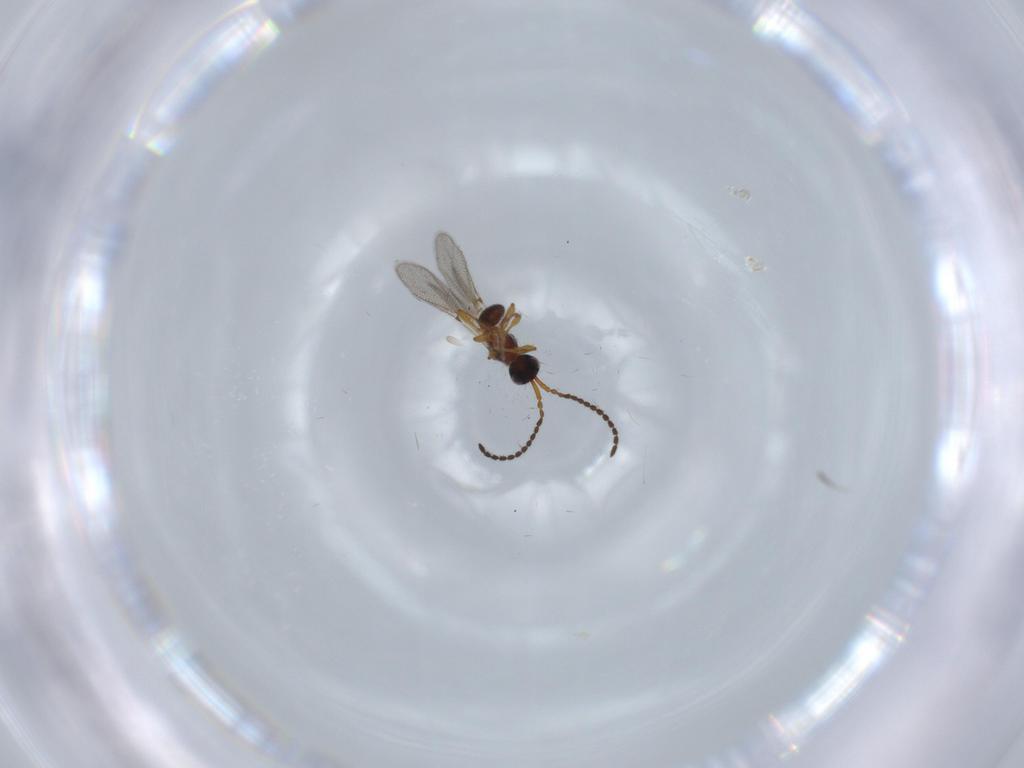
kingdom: Animalia
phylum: Arthropoda
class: Insecta
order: Hymenoptera
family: Diapriidae
